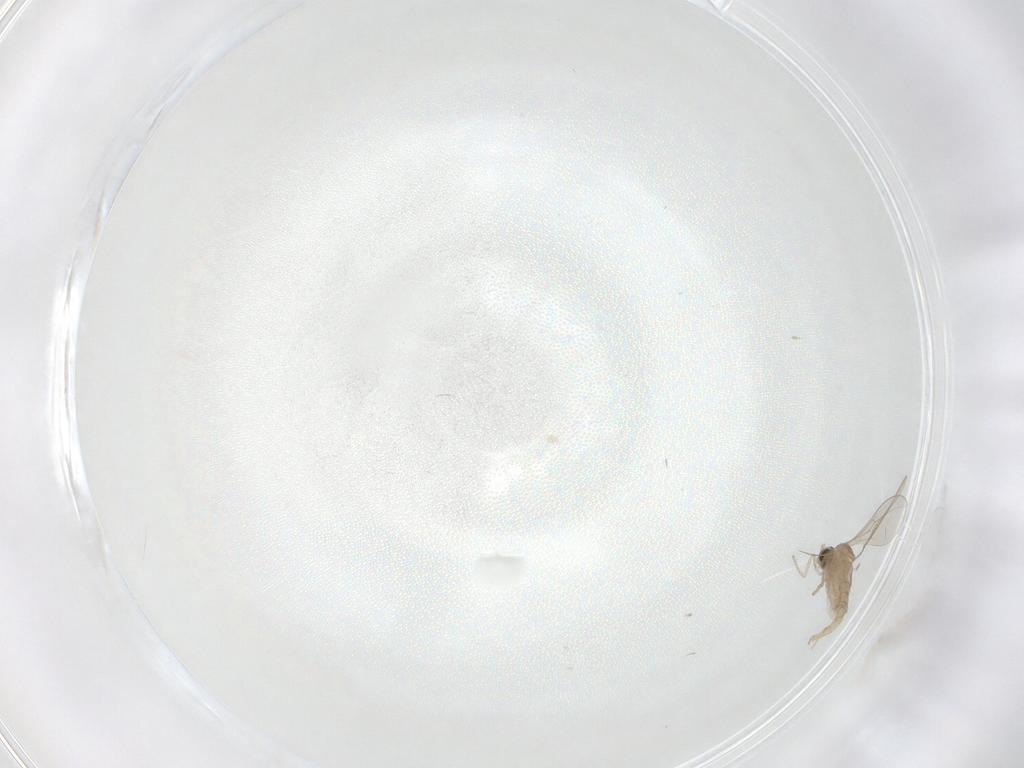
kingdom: Animalia
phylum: Arthropoda
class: Insecta
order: Diptera
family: Cecidomyiidae
